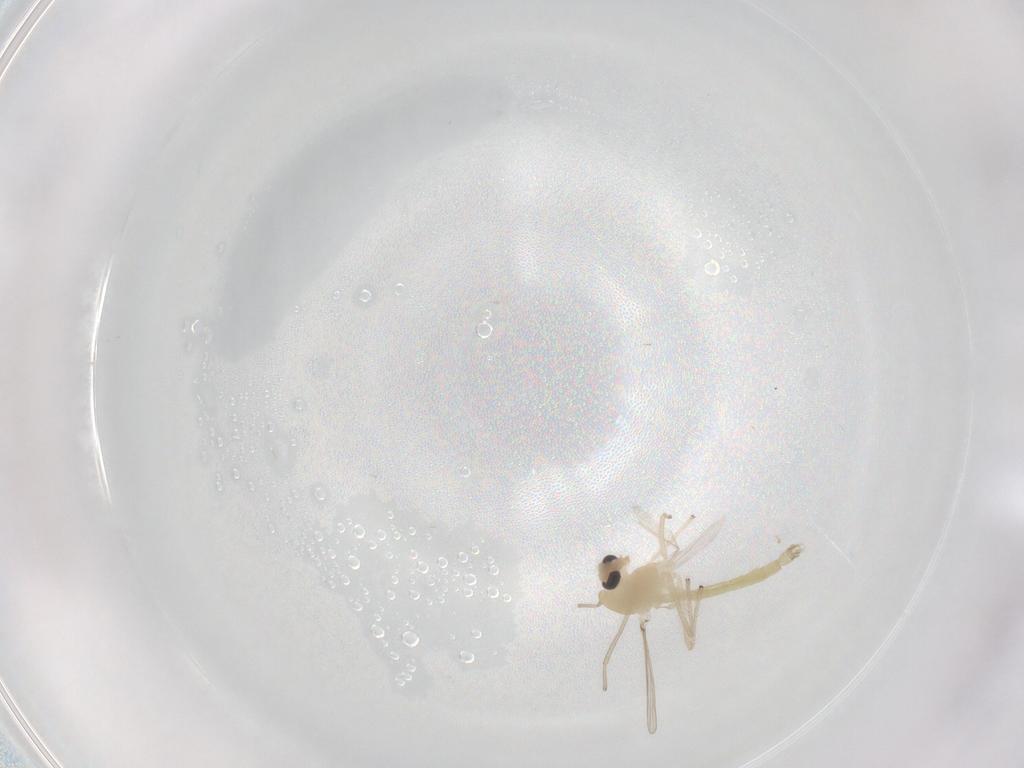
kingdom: Animalia
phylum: Arthropoda
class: Insecta
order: Diptera
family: Chironomidae
